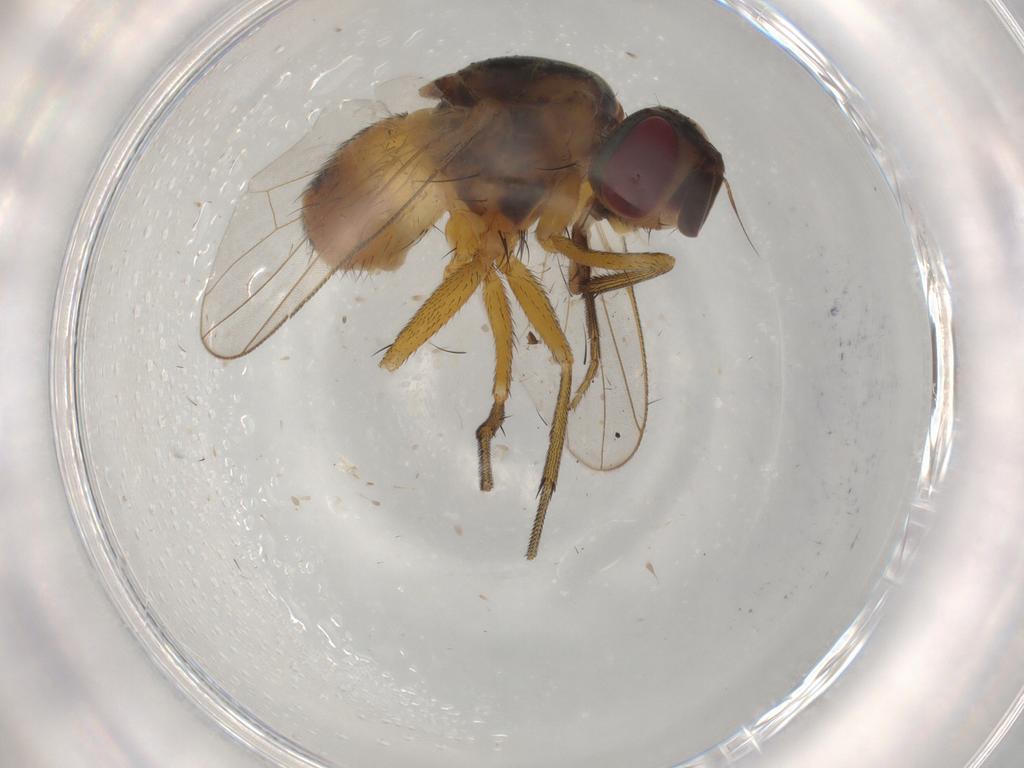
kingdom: Animalia
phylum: Arthropoda
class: Insecta
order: Diptera
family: Muscidae
